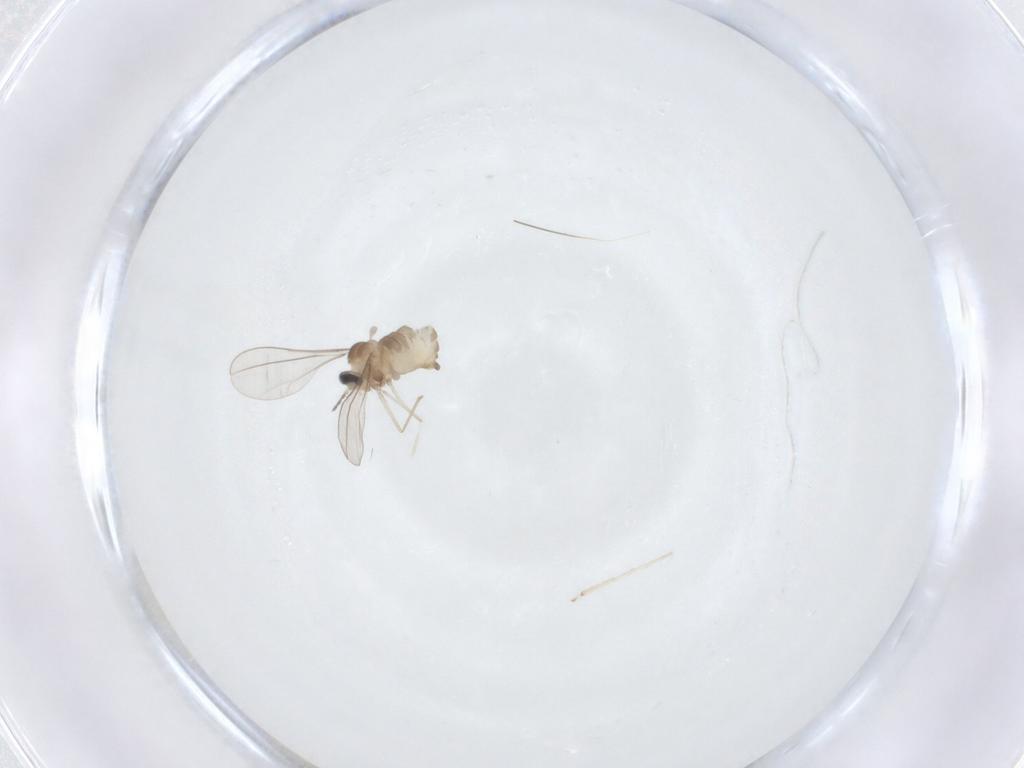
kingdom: Animalia
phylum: Arthropoda
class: Insecta
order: Diptera
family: Cecidomyiidae
